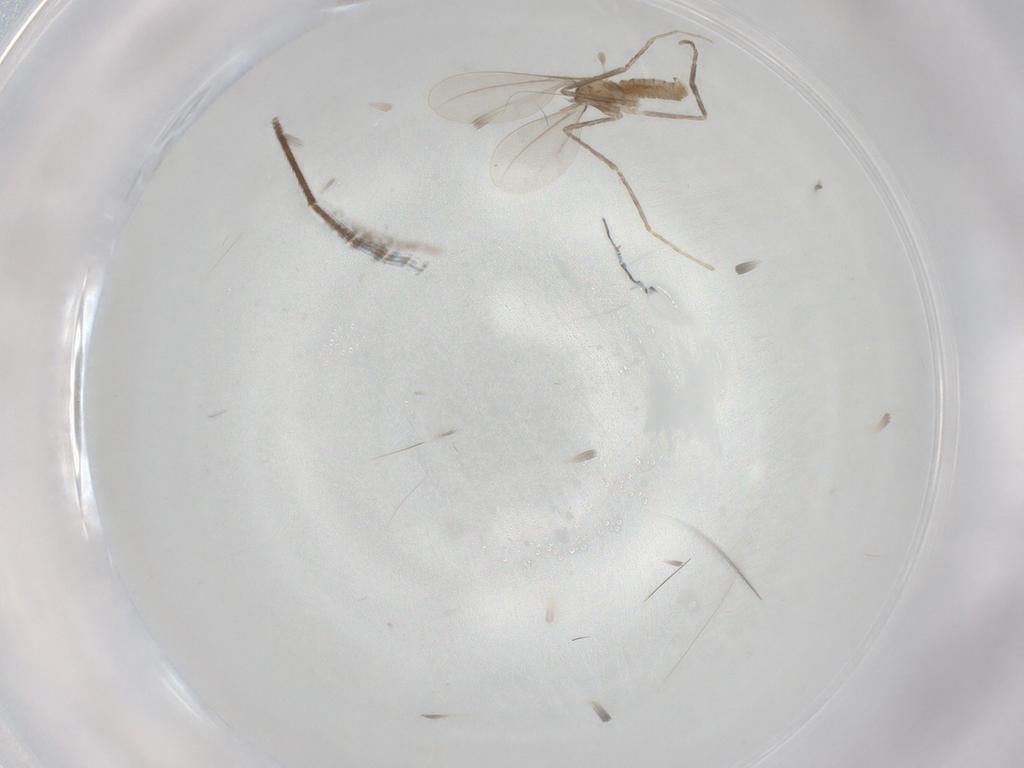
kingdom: Animalia
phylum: Arthropoda
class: Insecta
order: Diptera
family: Cecidomyiidae
